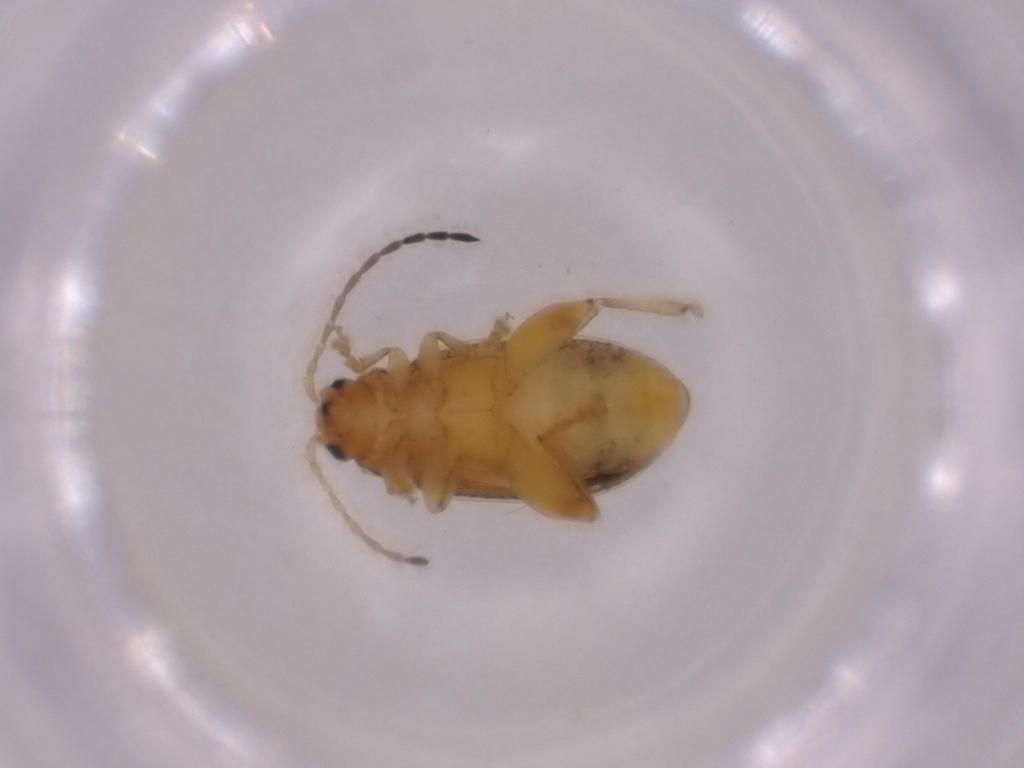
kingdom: Animalia
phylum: Arthropoda
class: Insecta
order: Coleoptera
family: Chrysomelidae
